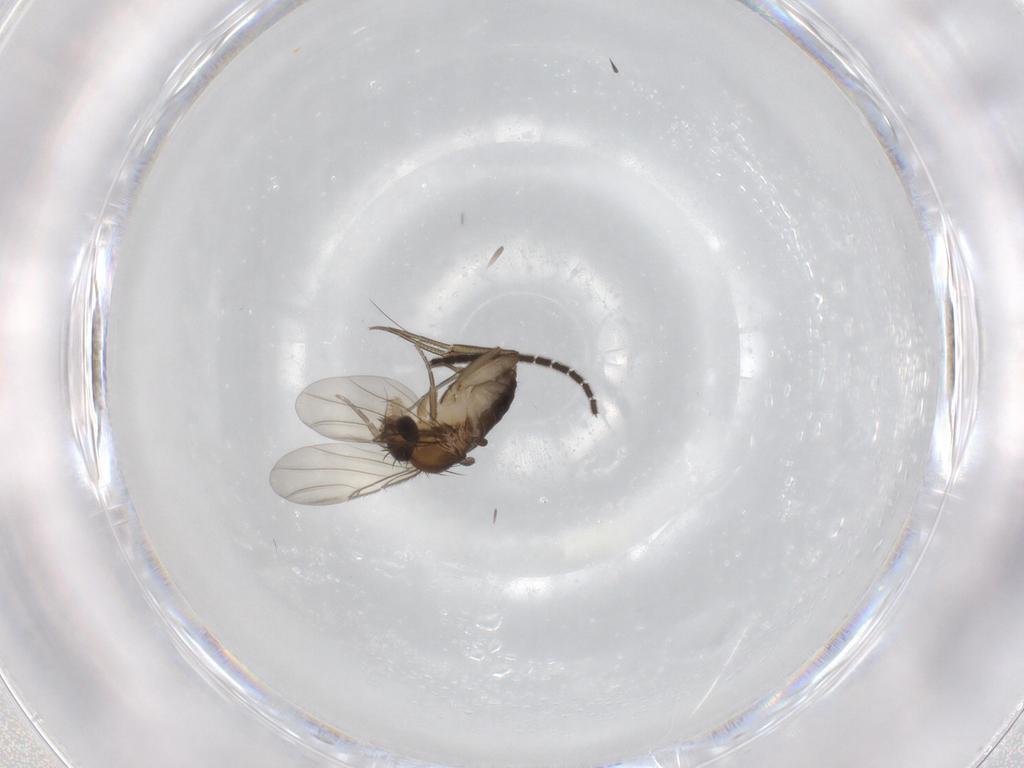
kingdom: Animalia
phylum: Arthropoda
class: Insecta
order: Diptera
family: Phoridae
